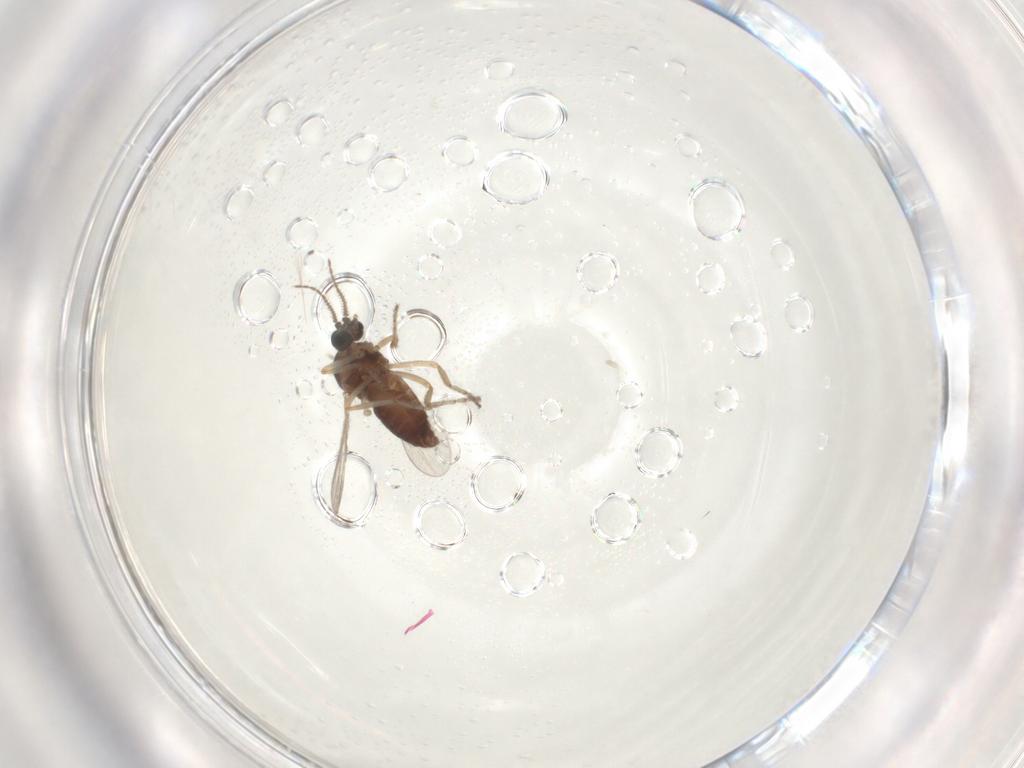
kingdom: Animalia
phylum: Arthropoda
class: Insecta
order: Diptera
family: Ceratopogonidae
